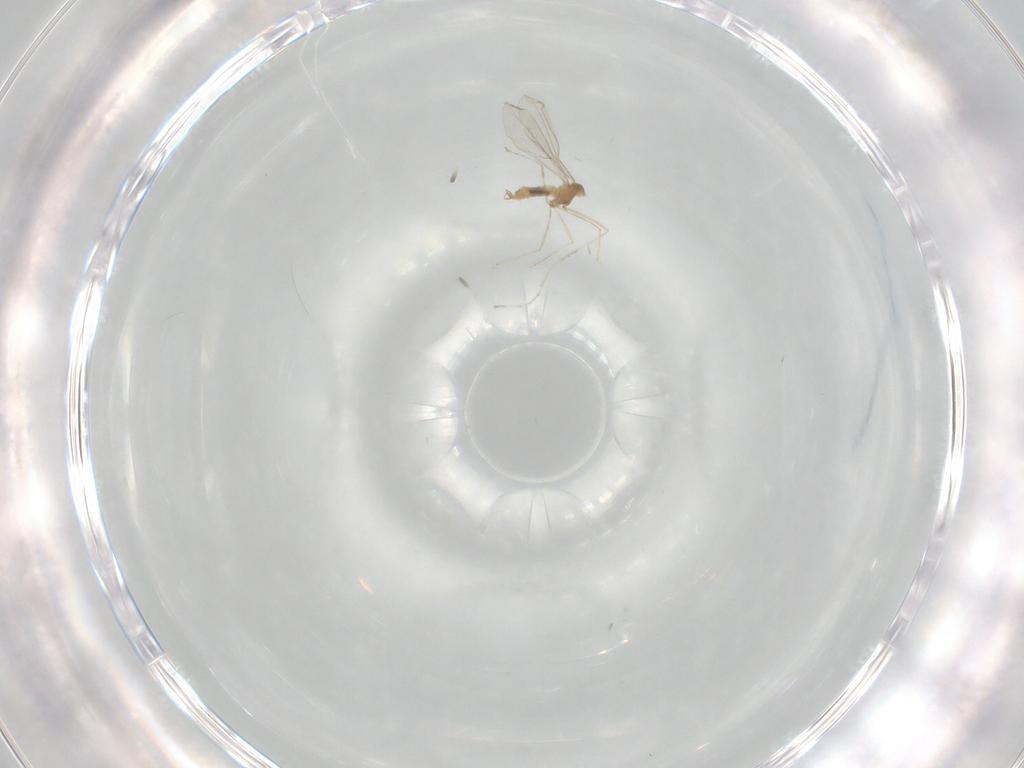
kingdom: Animalia
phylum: Arthropoda
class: Insecta
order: Diptera
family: Cecidomyiidae
